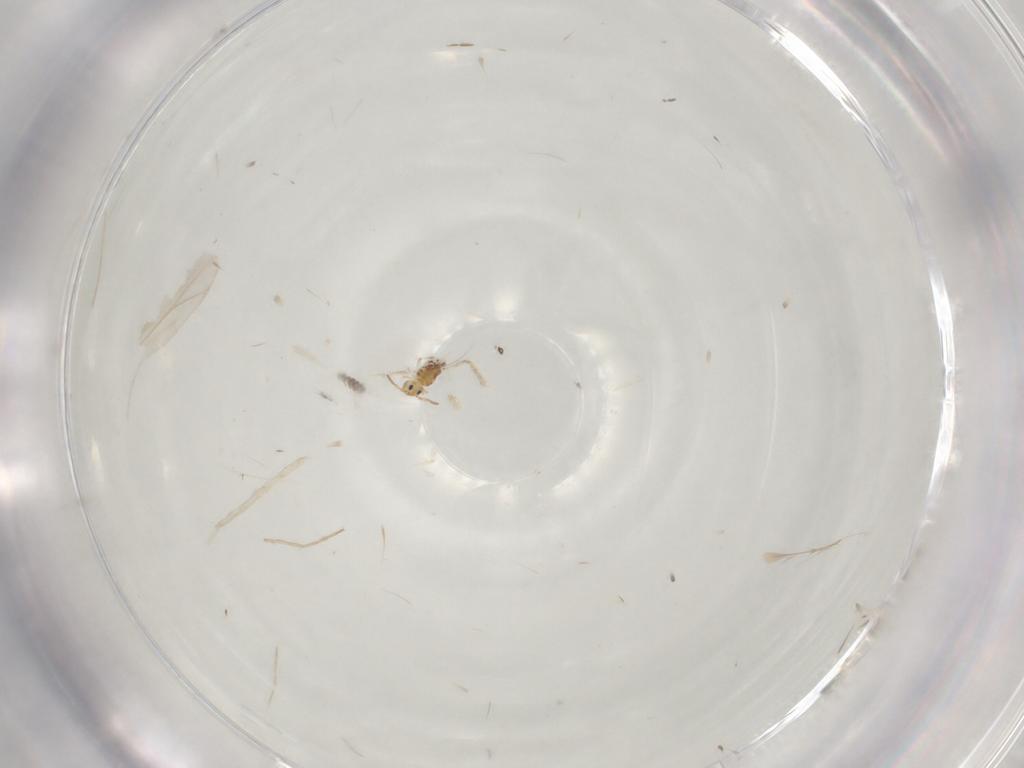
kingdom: Animalia
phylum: Arthropoda
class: Collembola
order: Symphypleona
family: Bourletiellidae
